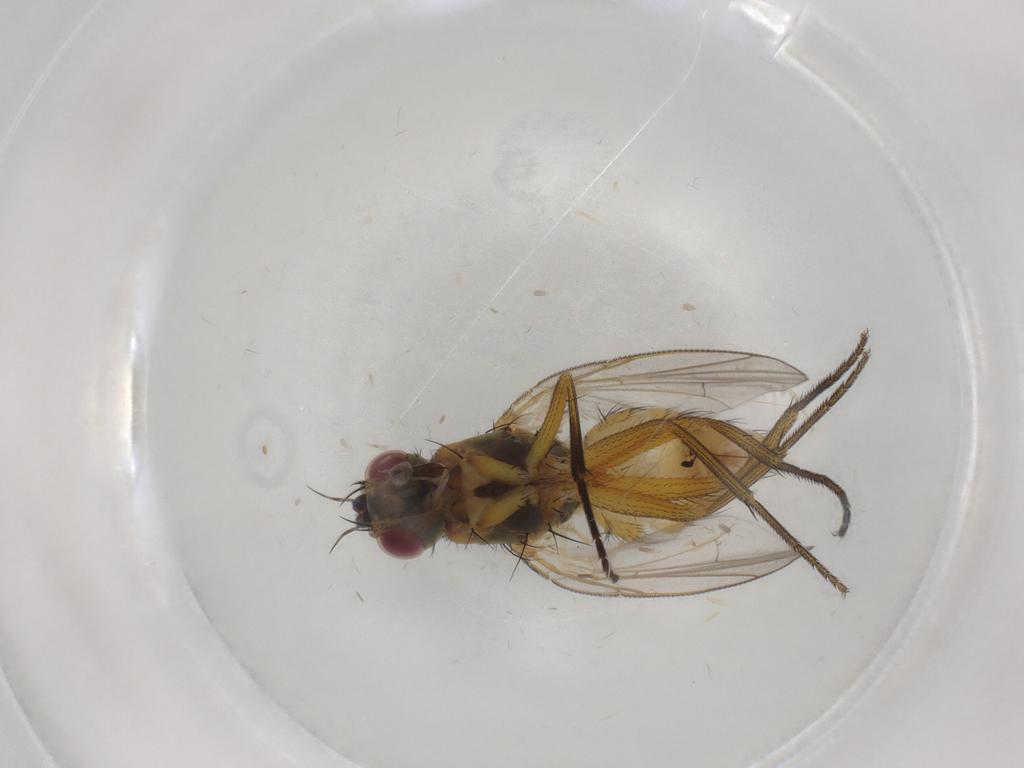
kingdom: Animalia
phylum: Arthropoda
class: Insecta
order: Diptera
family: Muscidae
